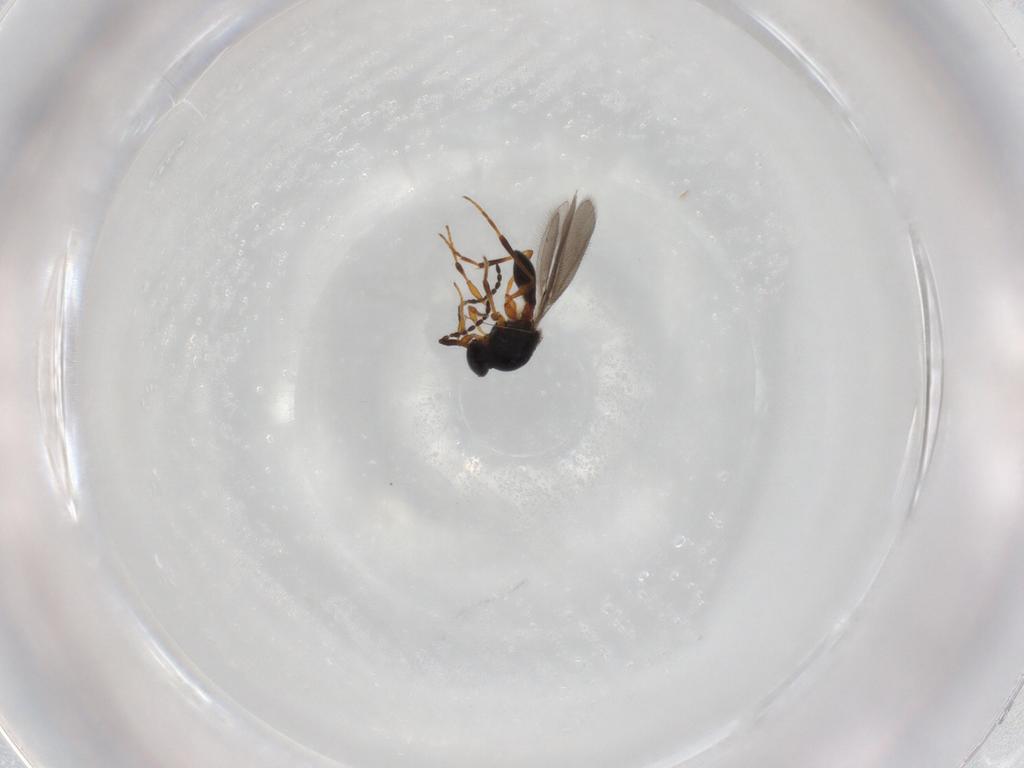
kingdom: Animalia
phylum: Arthropoda
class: Insecta
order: Hymenoptera
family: Platygastridae
